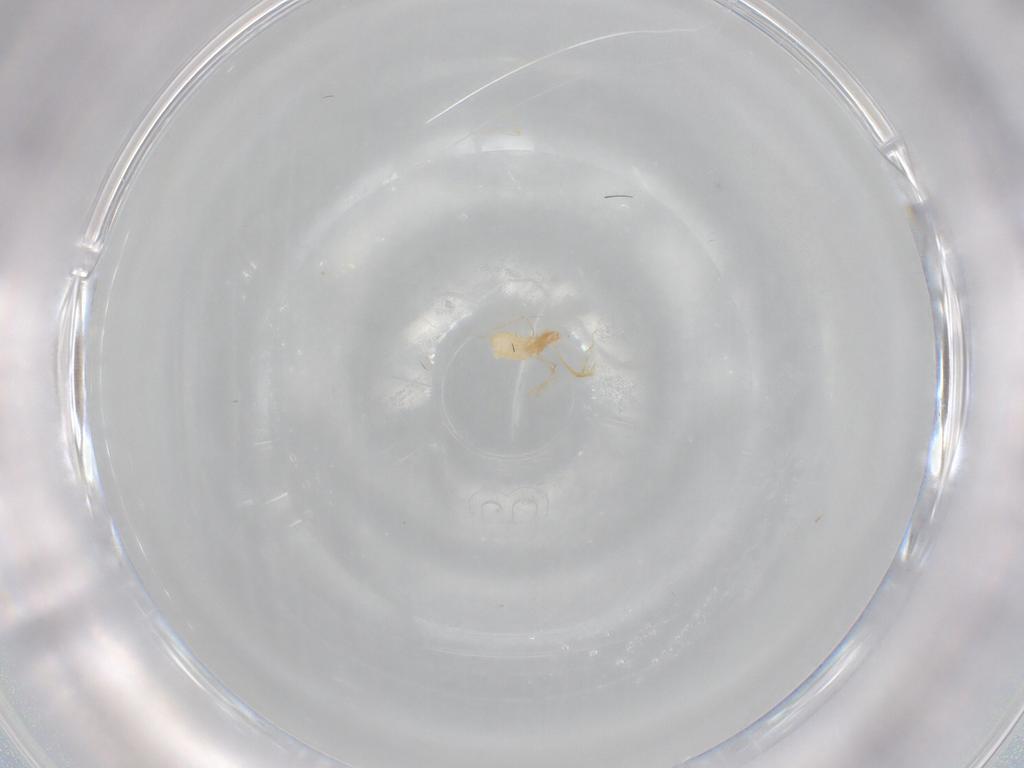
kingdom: Animalia
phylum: Arthropoda
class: Insecta
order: Diptera
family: Cecidomyiidae
